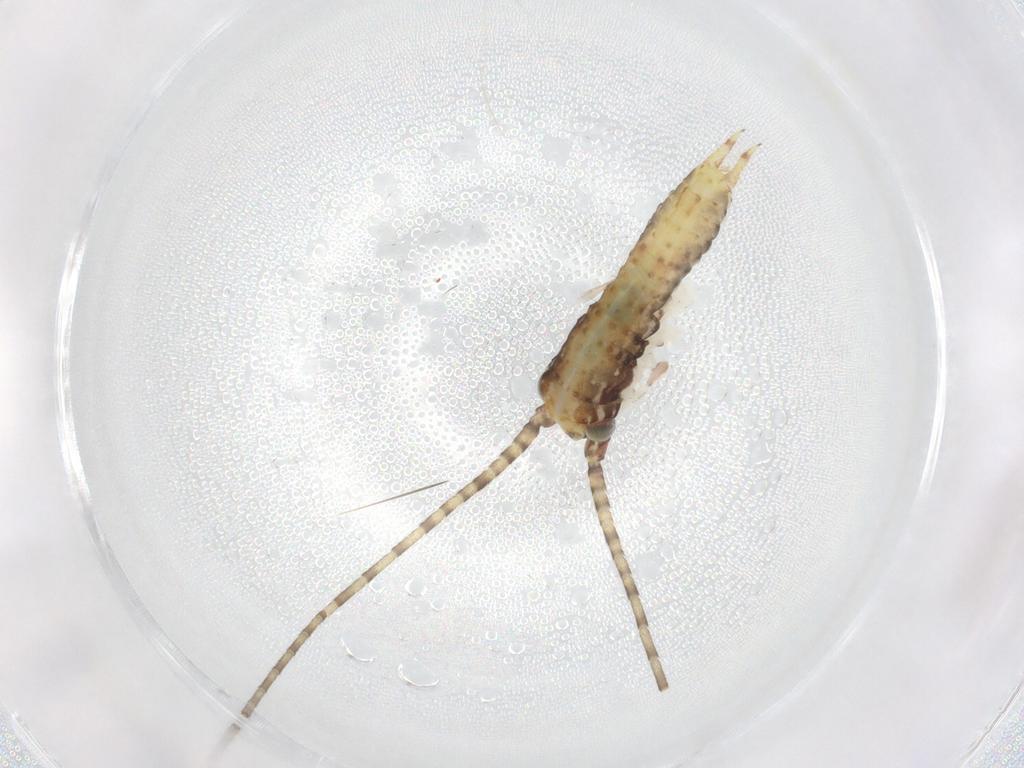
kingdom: Animalia
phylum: Arthropoda
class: Insecta
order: Orthoptera
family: Gryllidae
